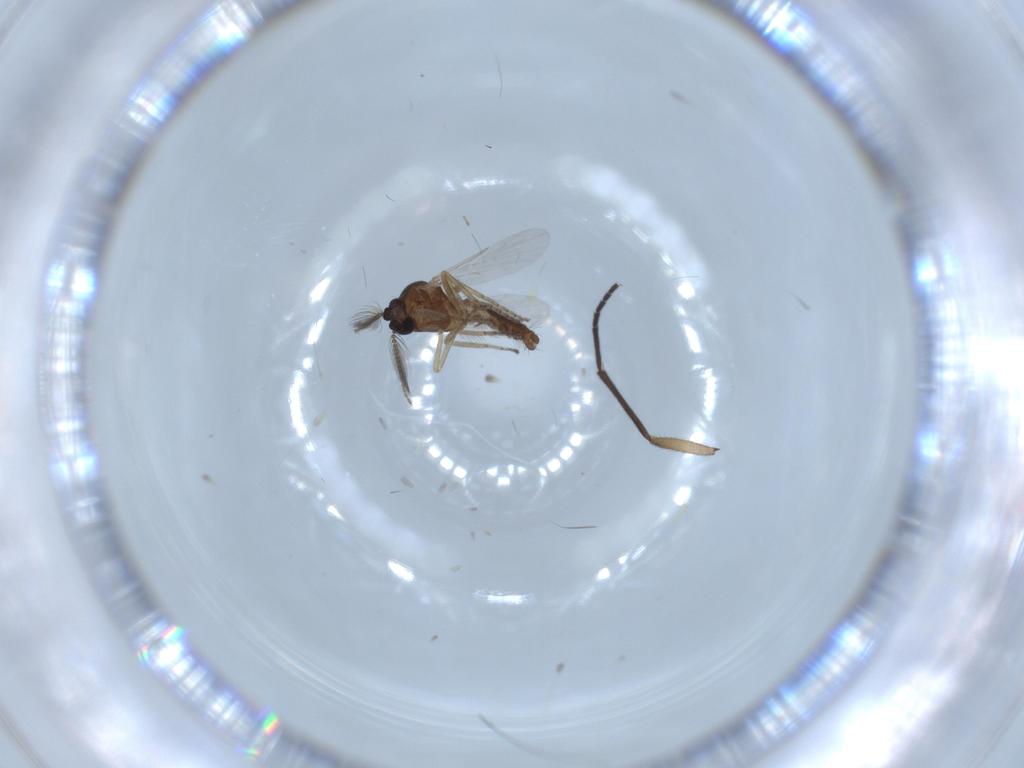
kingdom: Animalia
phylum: Arthropoda
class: Insecta
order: Diptera
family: Ceratopogonidae
